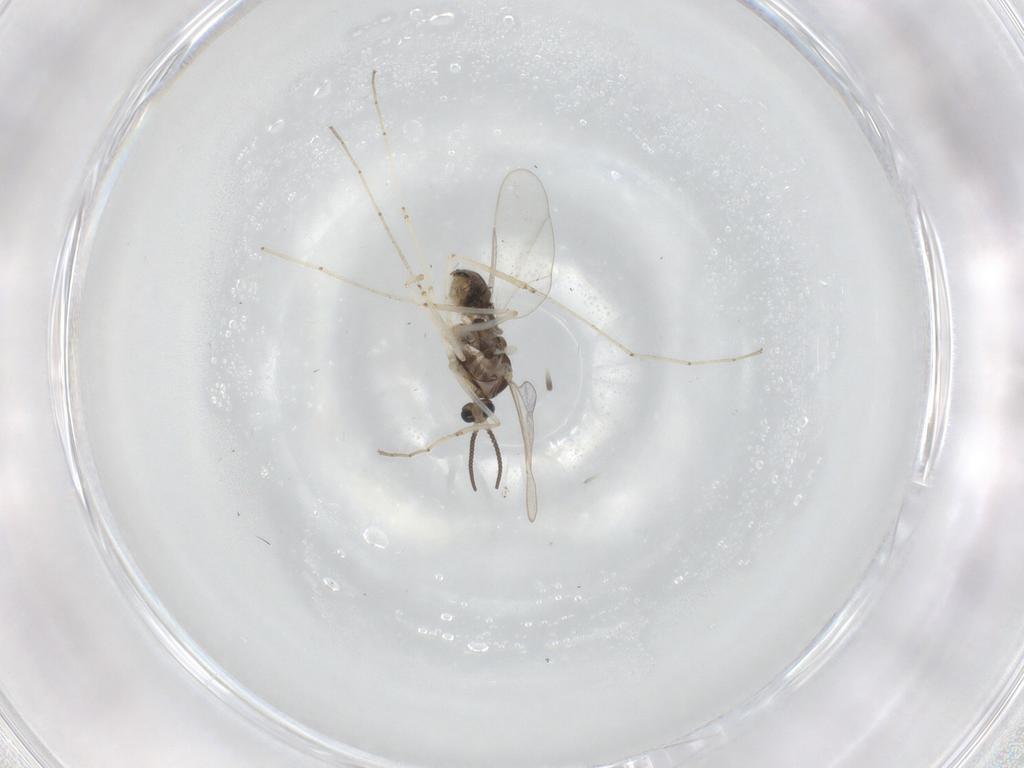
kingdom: Animalia
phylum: Arthropoda
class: Insecta
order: Diptera
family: Cecidomyiidae
